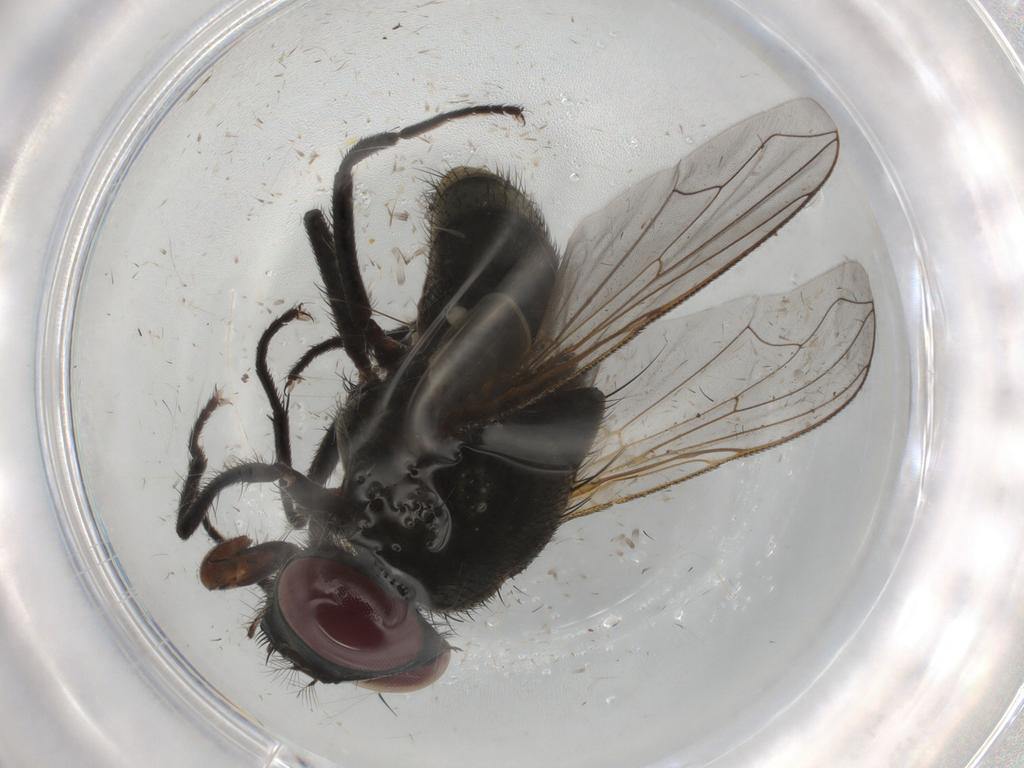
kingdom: Animalia
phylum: Arthropoda
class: Insecta
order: Diptera
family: Muscidae
